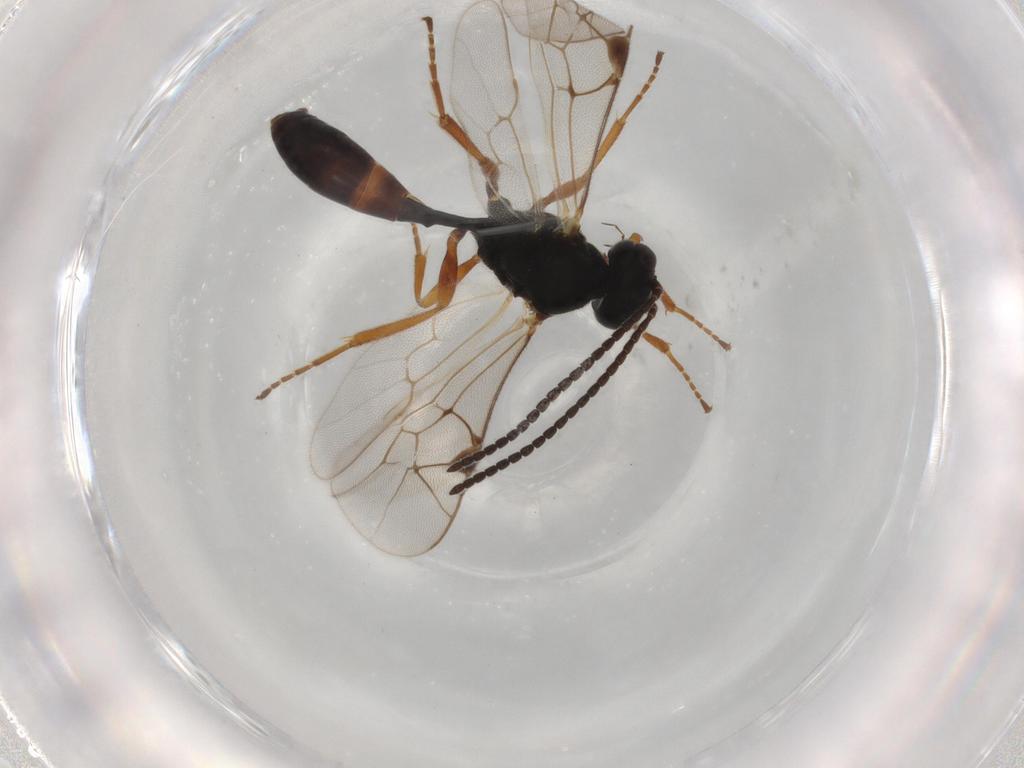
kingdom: Animalia
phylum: Arthropoda
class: Insecta
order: Hymenoptera
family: Ichneumonidae
